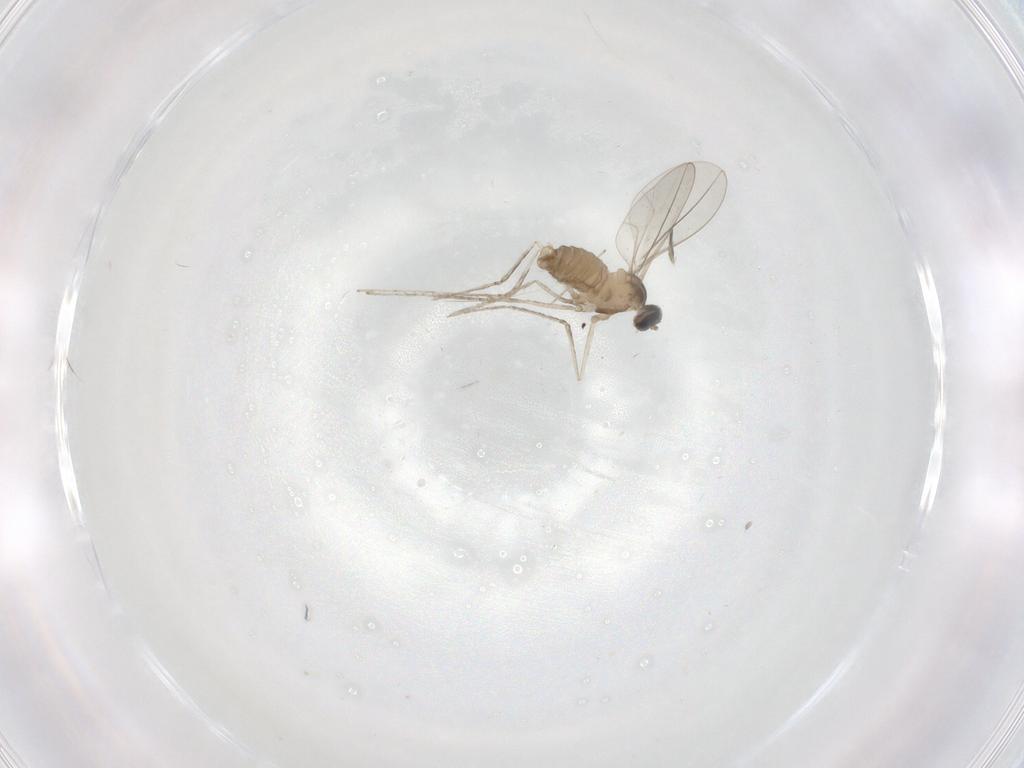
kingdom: Animalia
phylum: Arthropoda
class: Insecta
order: Diptera
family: Cecidomyiidae
